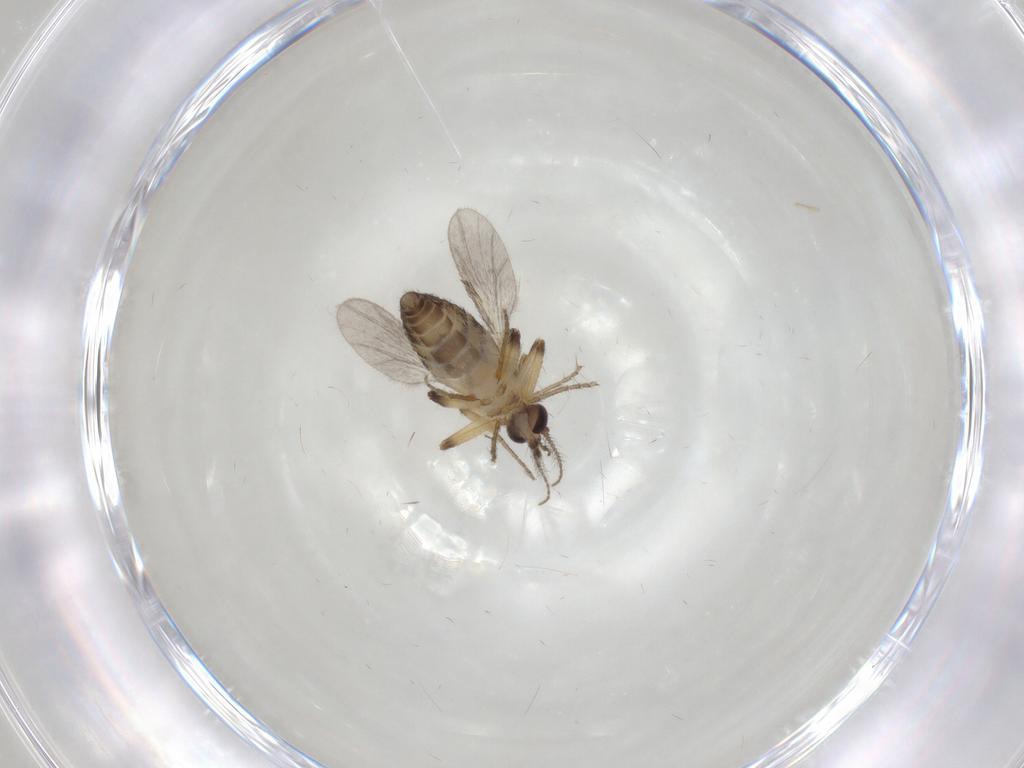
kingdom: Animalia
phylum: Arthropoda
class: Insecta
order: Diptera
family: Ceratopogonidae
